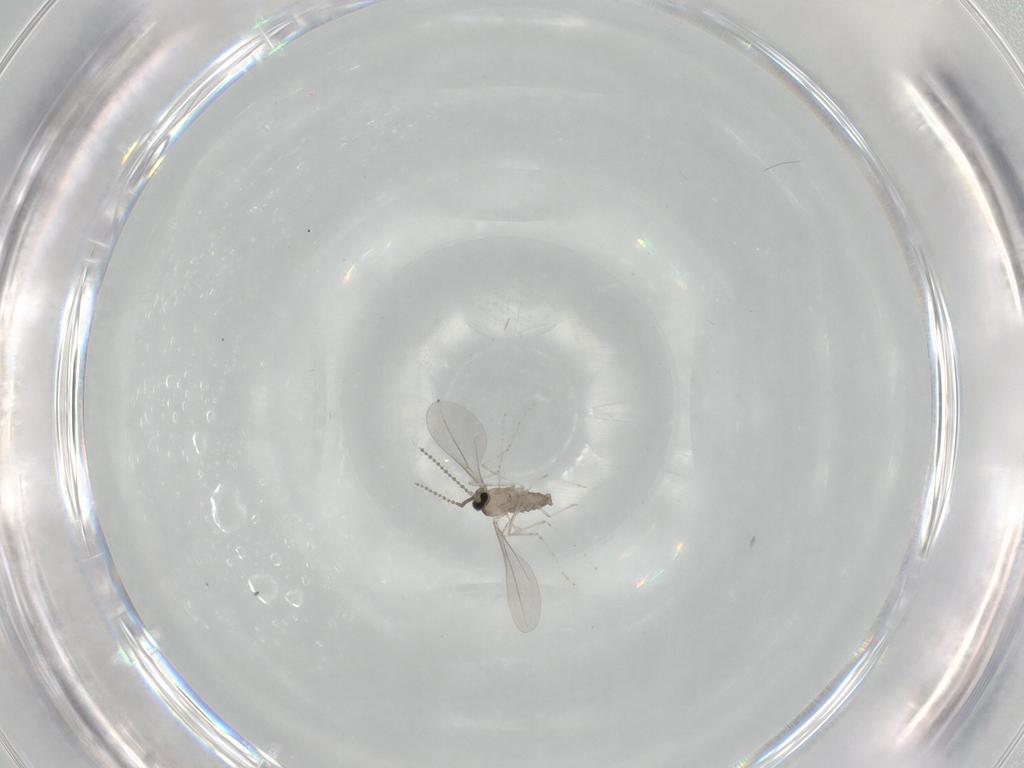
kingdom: Animalia
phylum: Arthropoda
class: Insecta
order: Diptera
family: Cecidomyiidae
